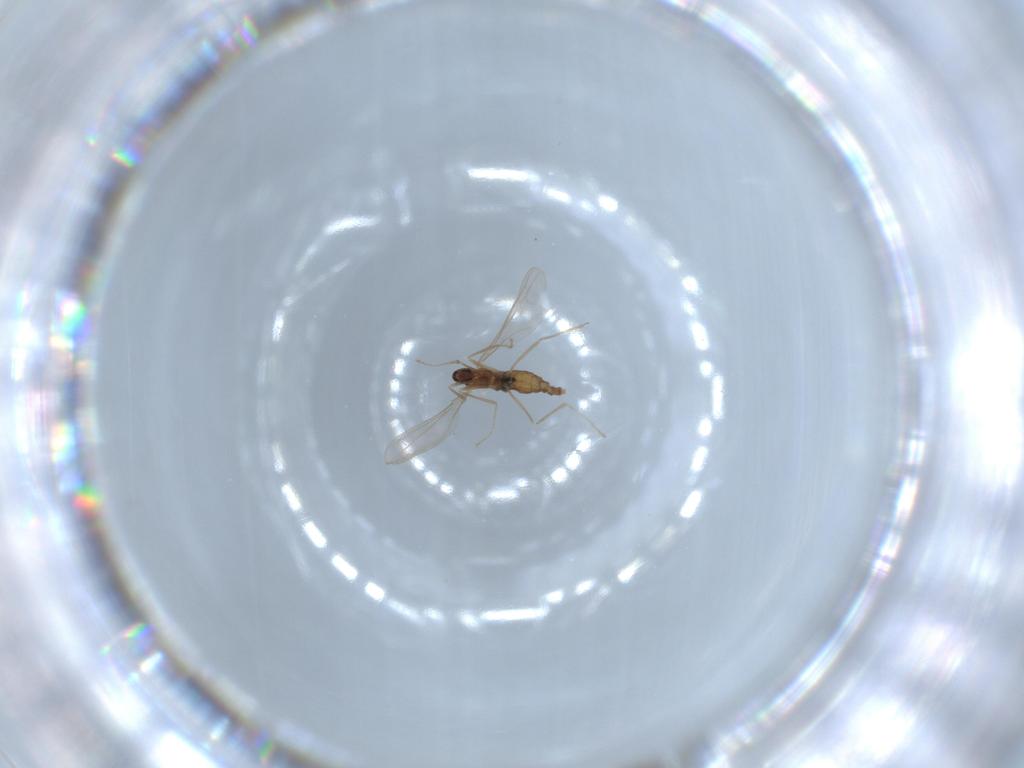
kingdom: Animalia
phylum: Arthropoda
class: Insecta
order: Diptera
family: Cecidomyiidae
